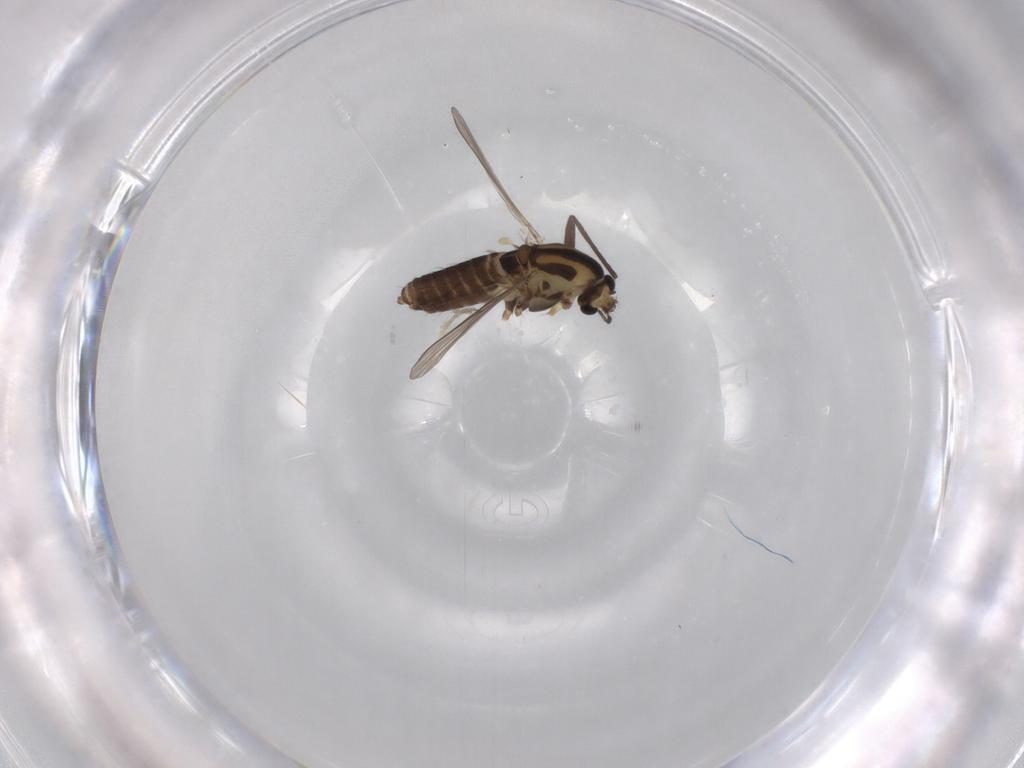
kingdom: Animalia
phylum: Arthropoda
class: Insecta
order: Diptera
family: Chironomidae
